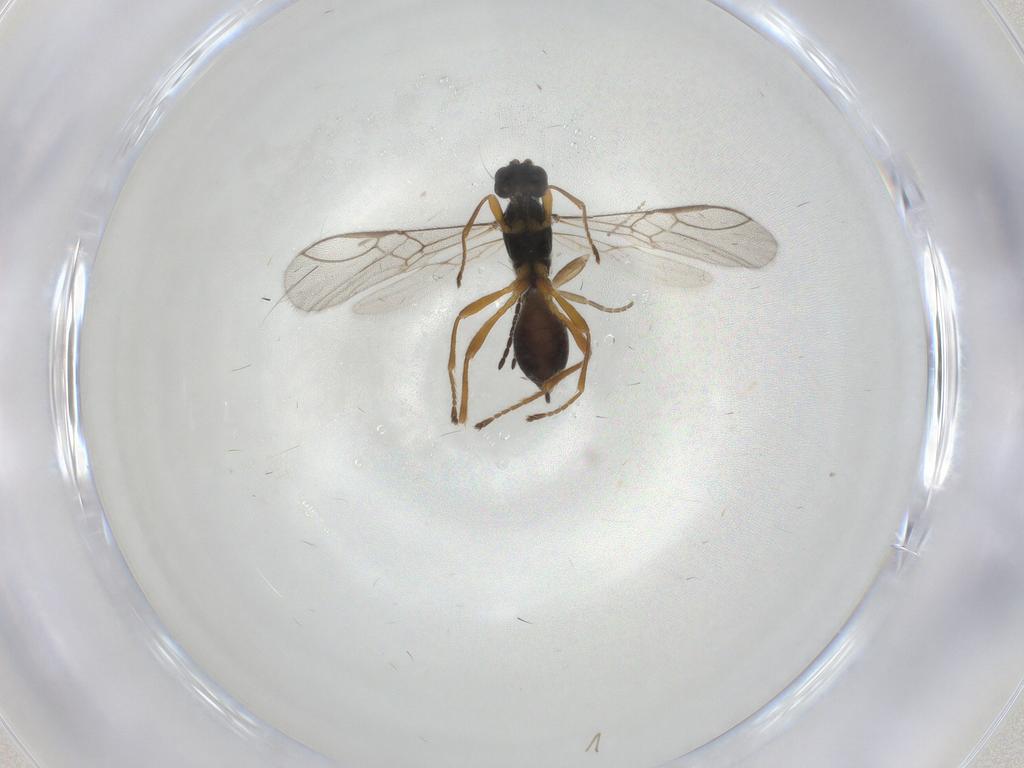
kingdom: Animalia
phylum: Arthropoda
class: Insecta
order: Hymenoptera
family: Braconidae
